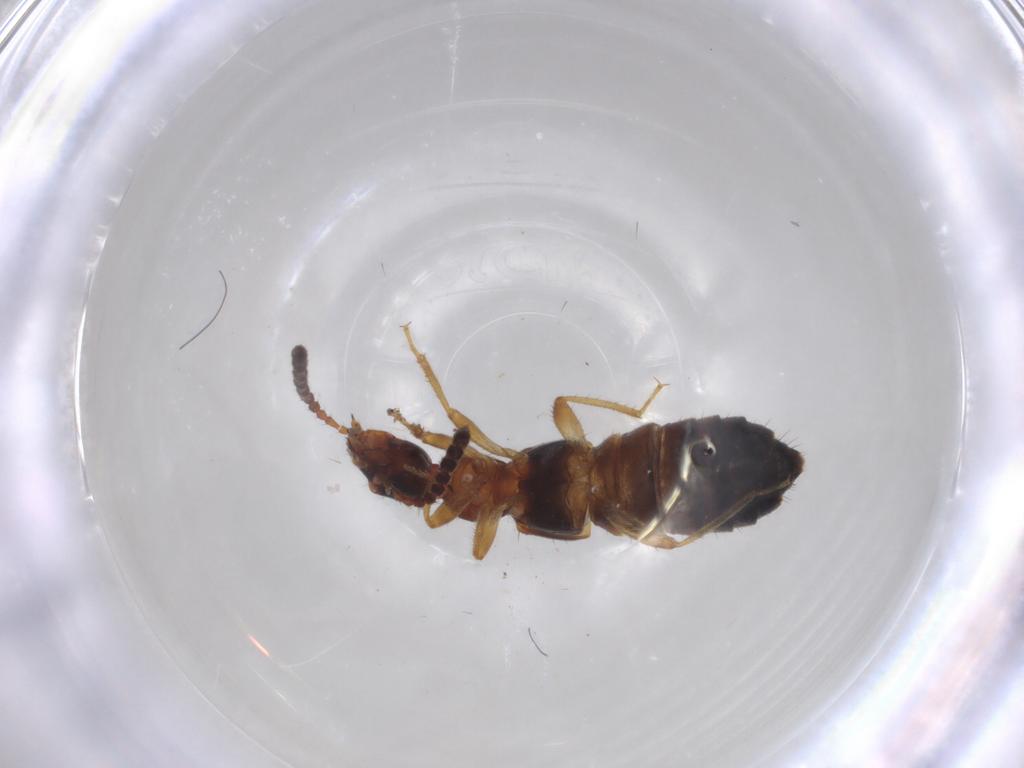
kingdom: Animalia
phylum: Arthropoda
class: Insecta
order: Coleoptera
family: Staphylinidae
